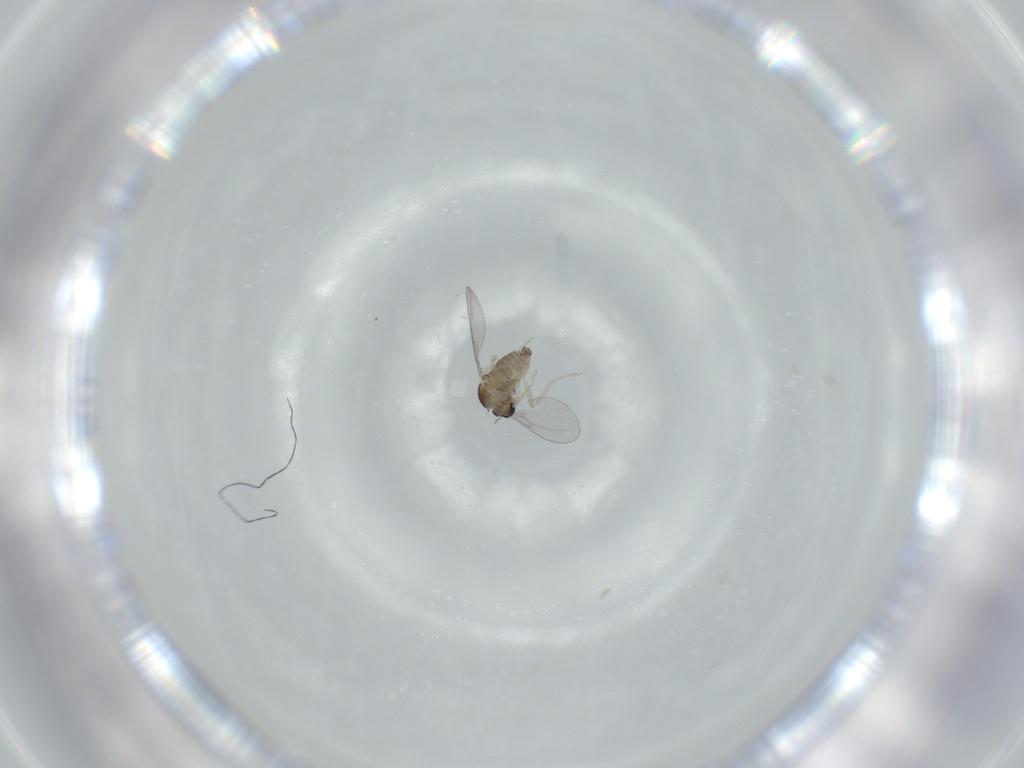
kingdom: Animalia
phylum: Arthropoda
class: Insecta
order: Diptera
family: Cecidomyiidae
